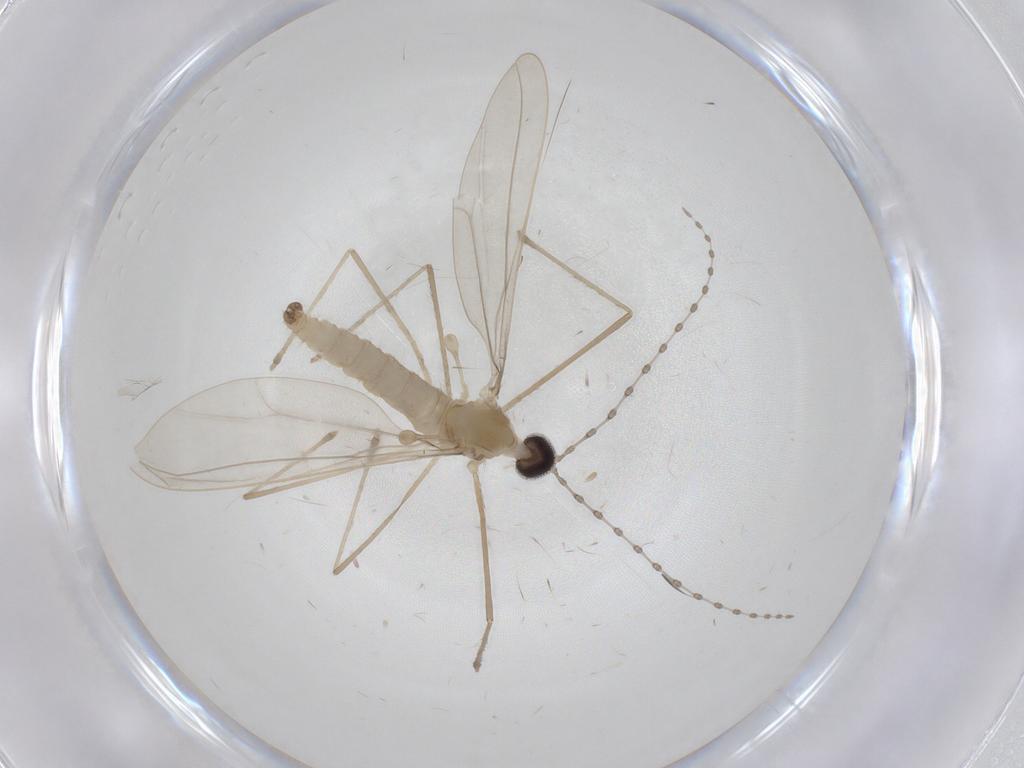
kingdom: Animalia
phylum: Arthropoda
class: Insecta
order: Diptera
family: Cecidomyiidae
